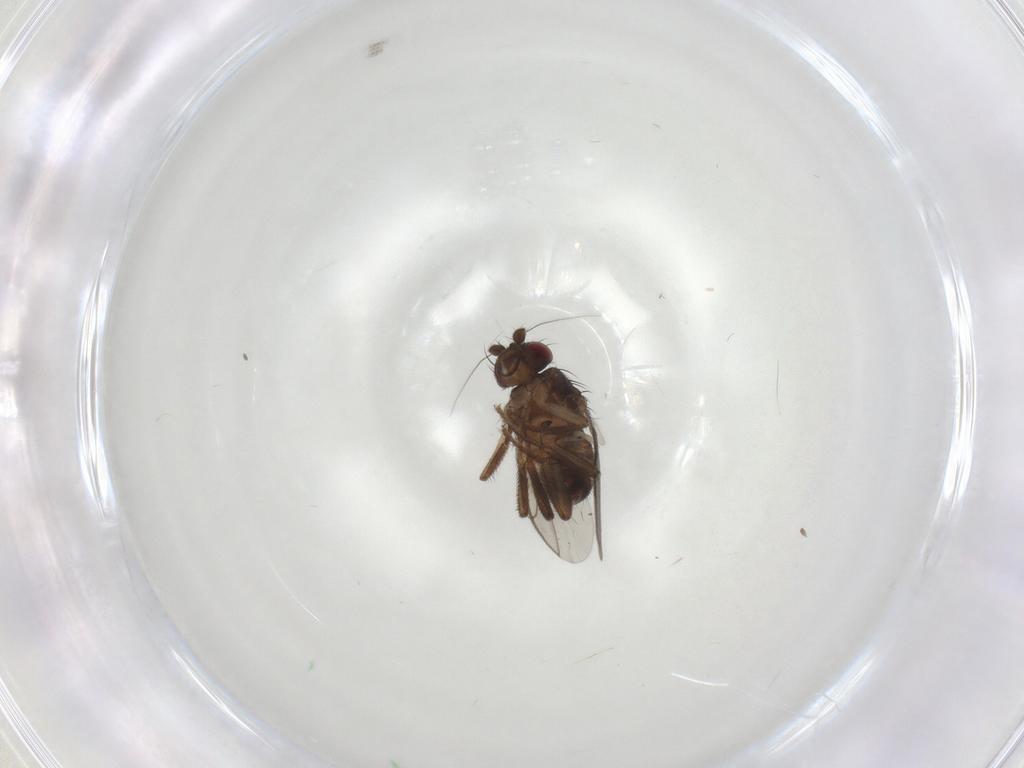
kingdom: Animalia
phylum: Arthropoda
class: Insecta
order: Diptera
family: Sphaeroceridae
